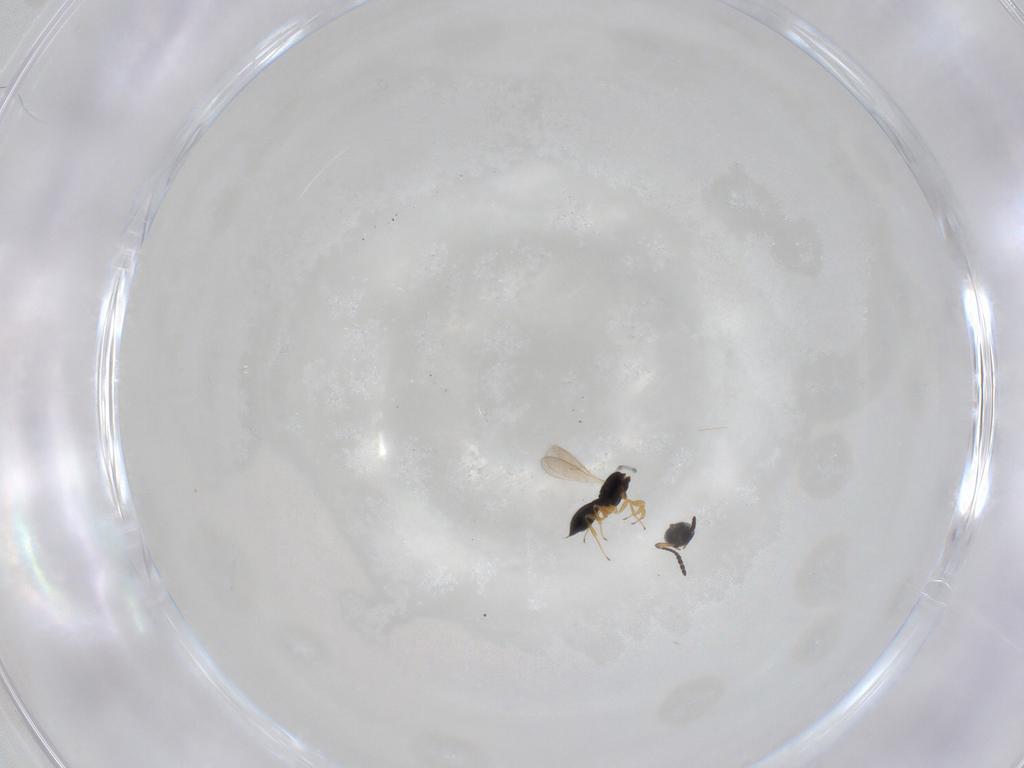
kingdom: Animalia
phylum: Arthropoda
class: Insecta
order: Hymenoptera
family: Scelionidae
